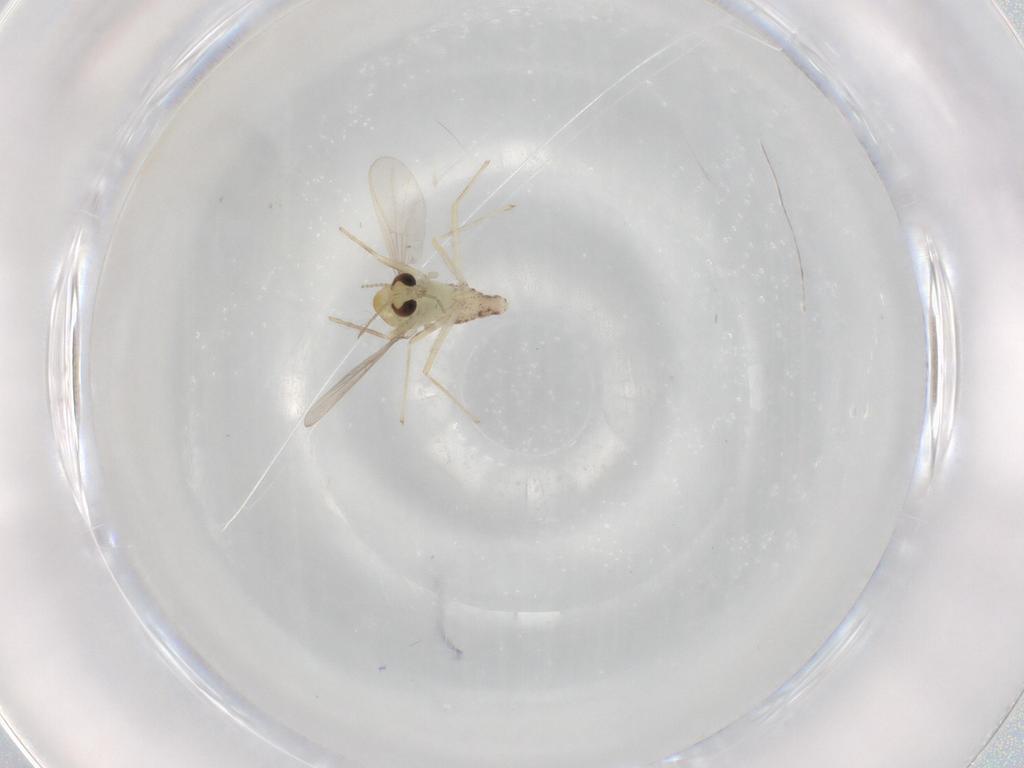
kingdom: Animalia
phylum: Arthropoda
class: Insecta
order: Diptera
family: Chironomidae
